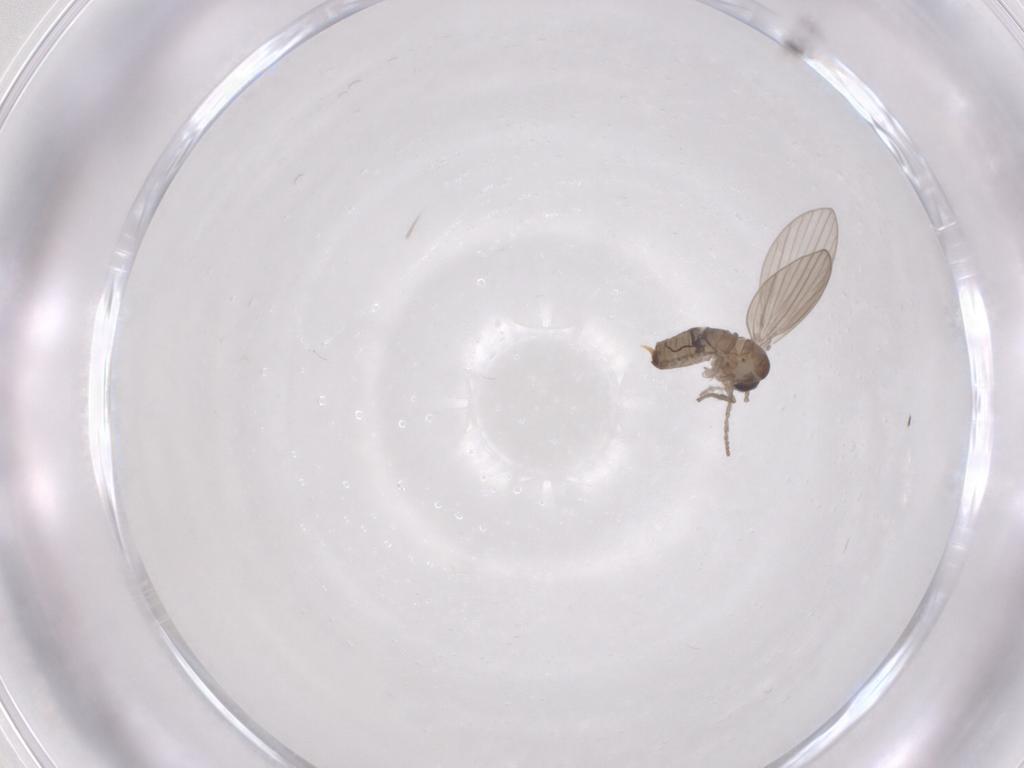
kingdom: Animalia
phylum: Arthropoda
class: Insecta
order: Diptera
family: Psychodidae
